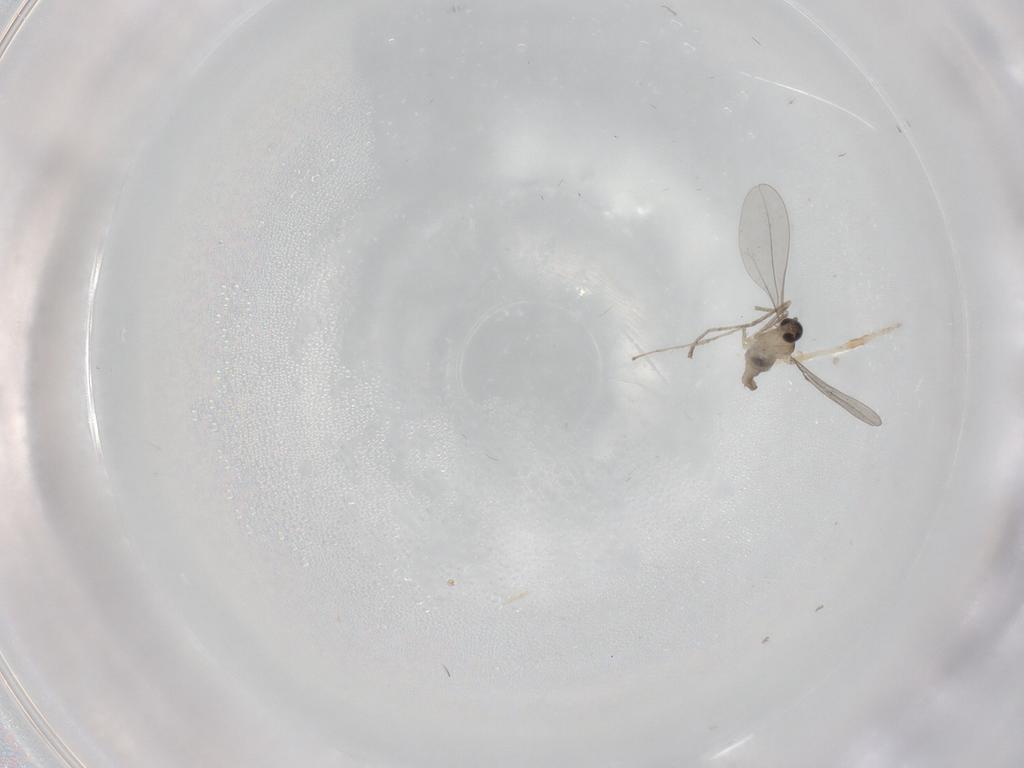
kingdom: Animalia
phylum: Arthropoda
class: Insecta
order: Diptera
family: Cecidomyiidae
